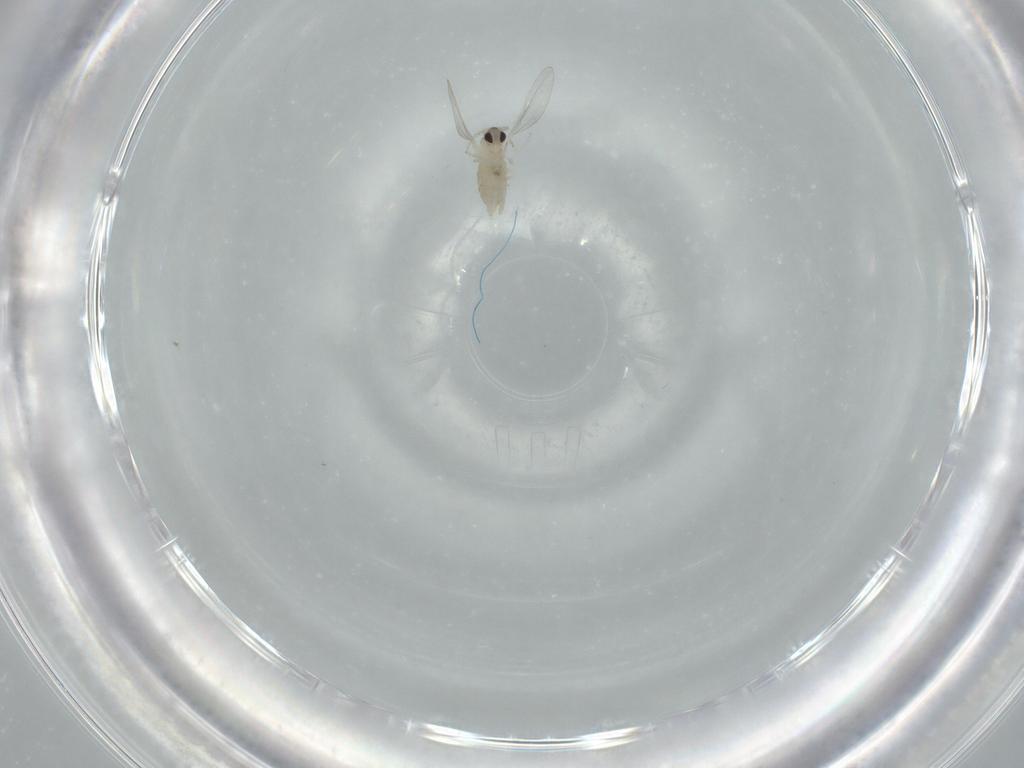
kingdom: Animalia
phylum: Arthropoda
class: Insecta
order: Diptera
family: Cecidomyiidae
